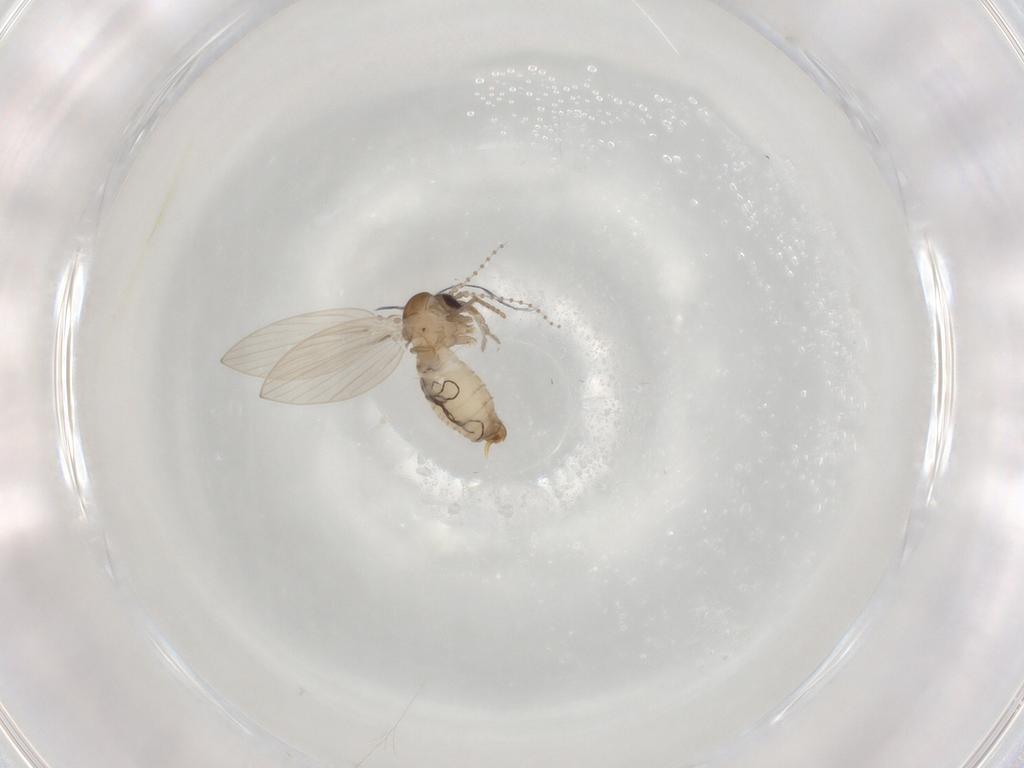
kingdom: Animalia
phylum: Arthropoda
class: Insecta
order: Diptera
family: Psychodidae
